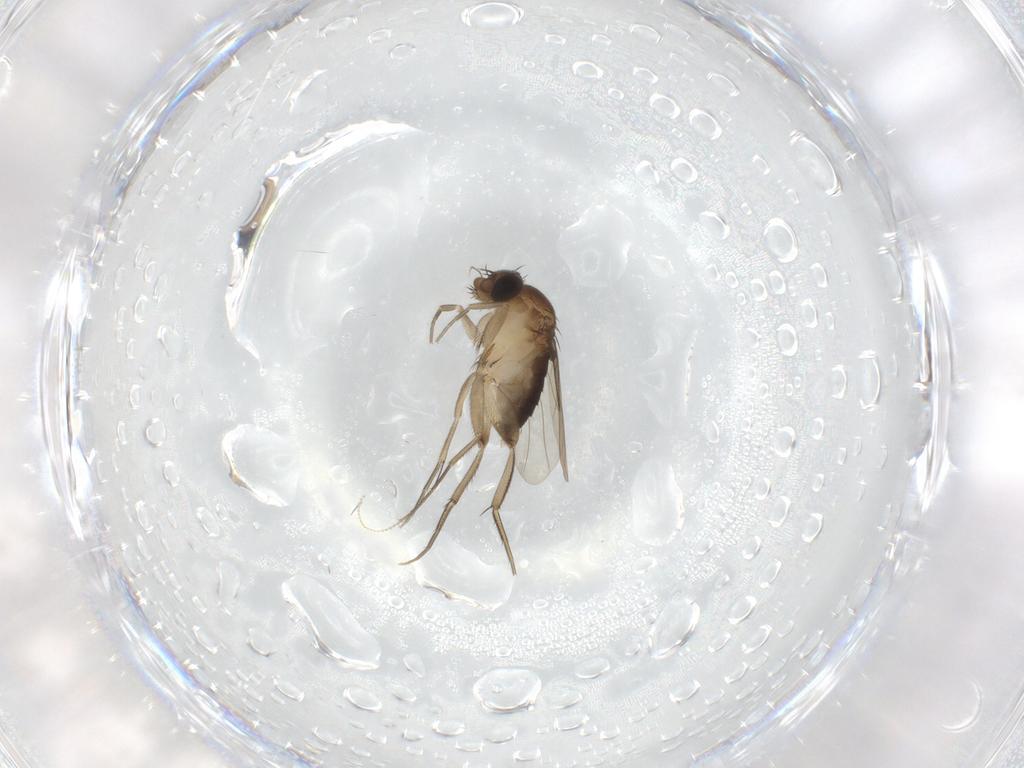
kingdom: Animalia
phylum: Arthropoda
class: Insecta
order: Diptera
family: Phoridae
